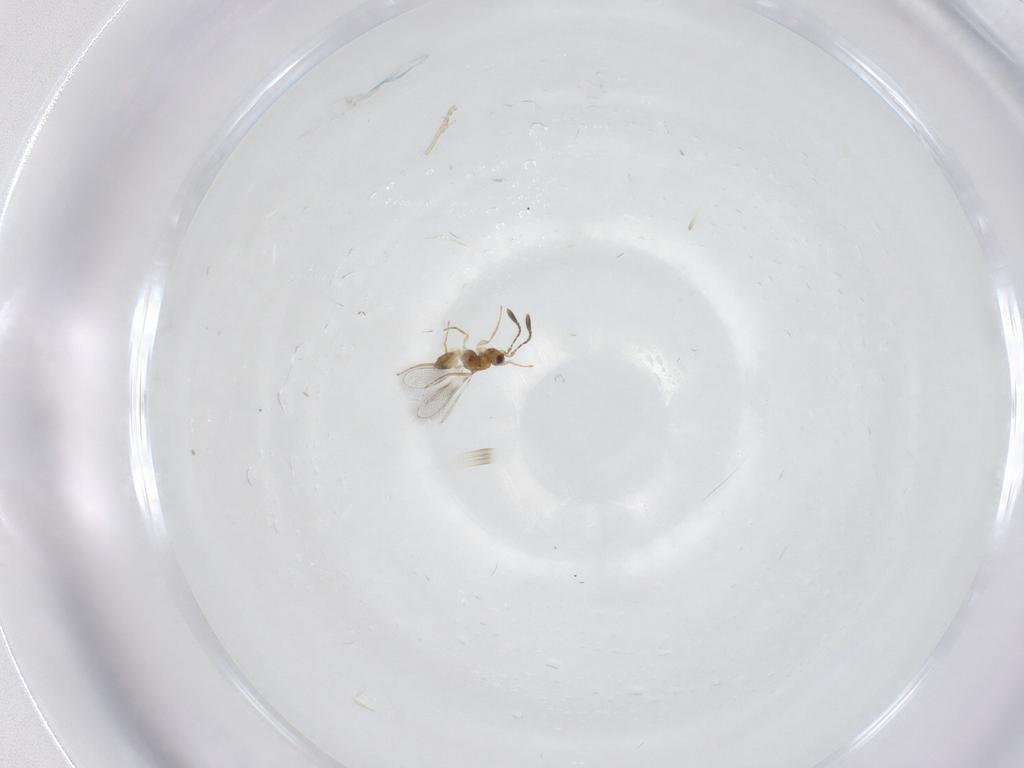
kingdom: Animalia
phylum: Arthropoda
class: Insecta
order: Hymenoptera
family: Mymaridae
